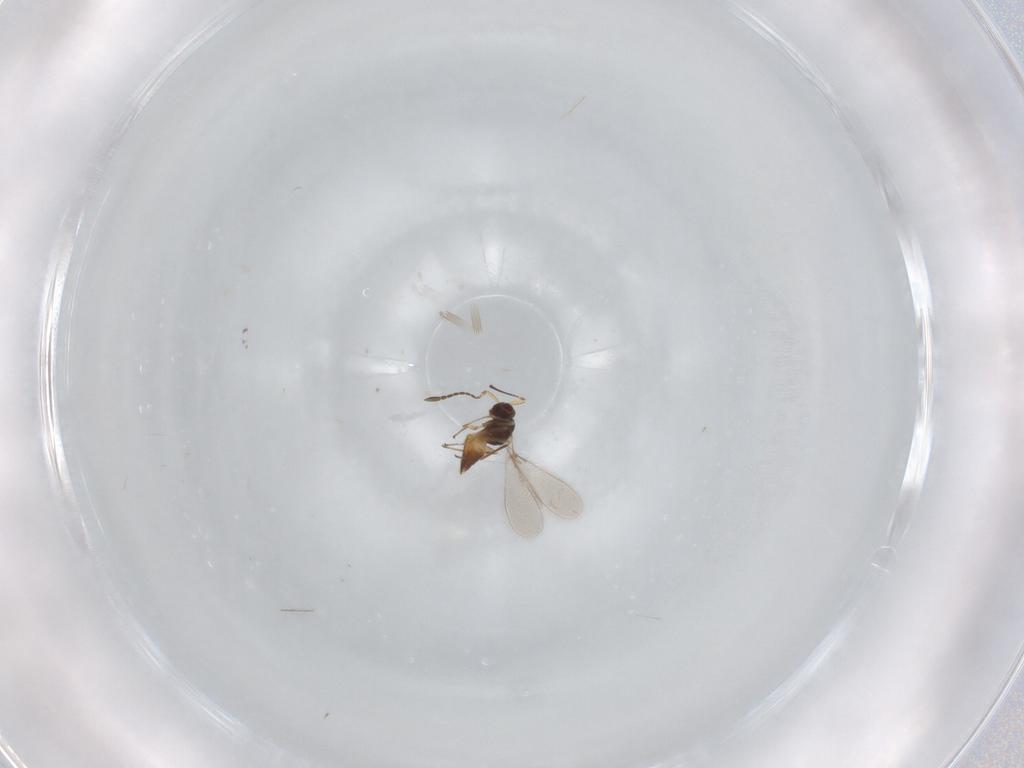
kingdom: Animalia
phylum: Arthropoda
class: Insecta
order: Hymenoptera
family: Mymaridae
